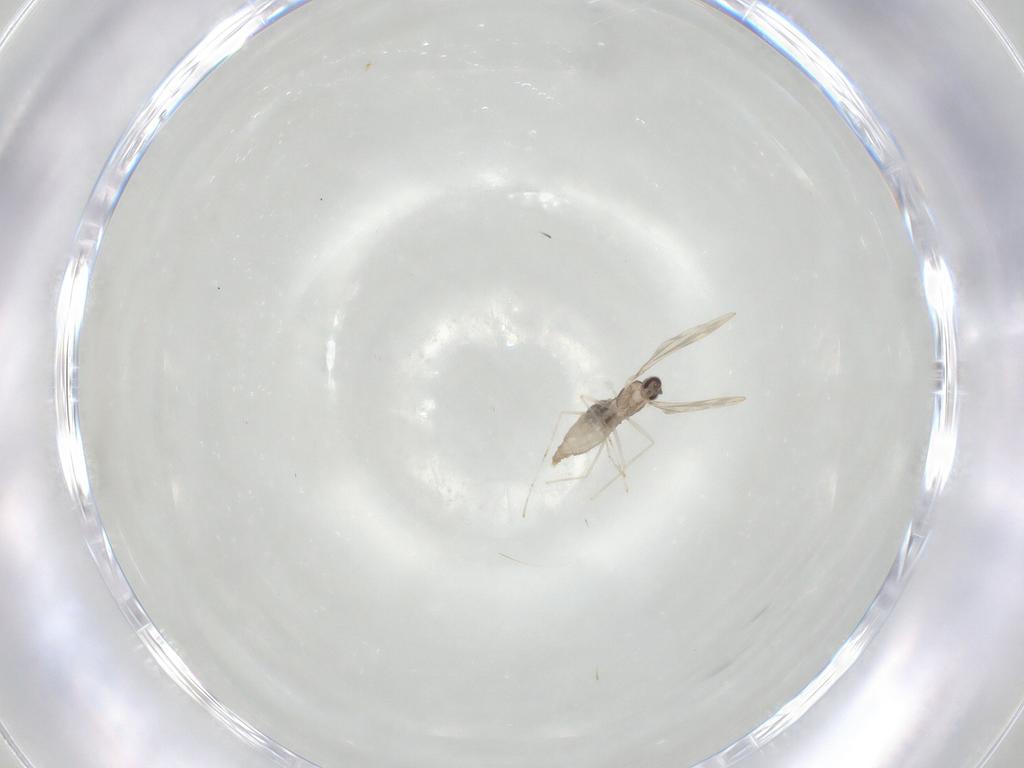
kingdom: Animalia
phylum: Arthropoda
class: Insecta
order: Diptera
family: Cecidomyiidae
